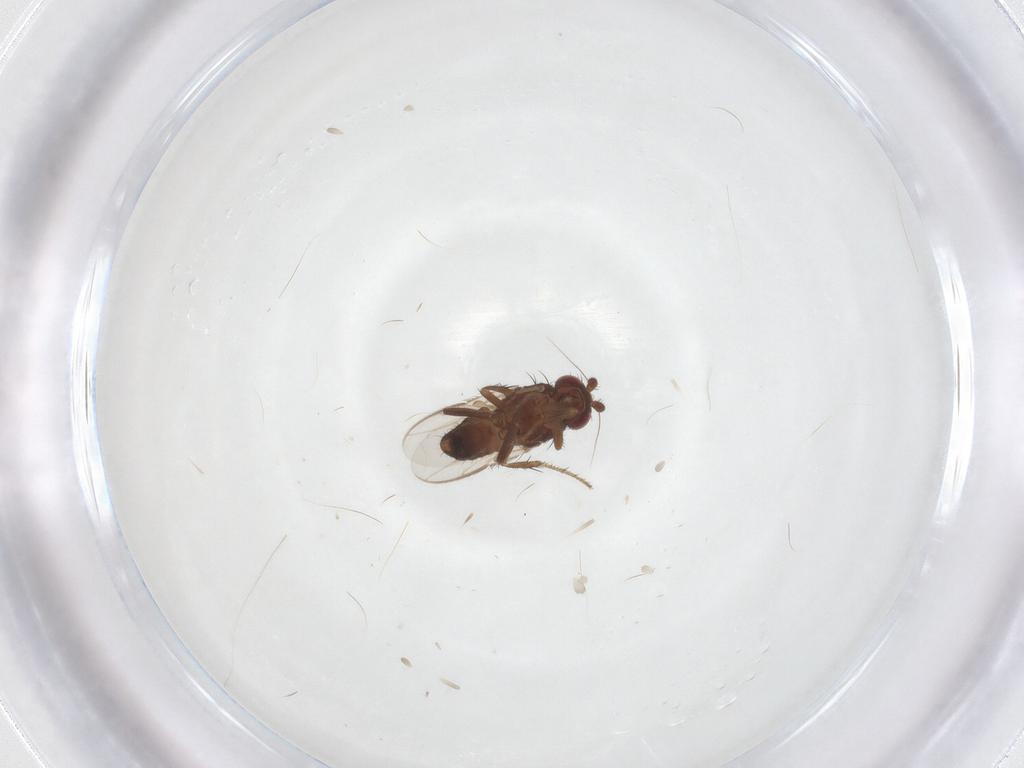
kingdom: Animalia
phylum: Arthropoda
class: Insecta
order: Diptera
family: Sphaeroceridae
